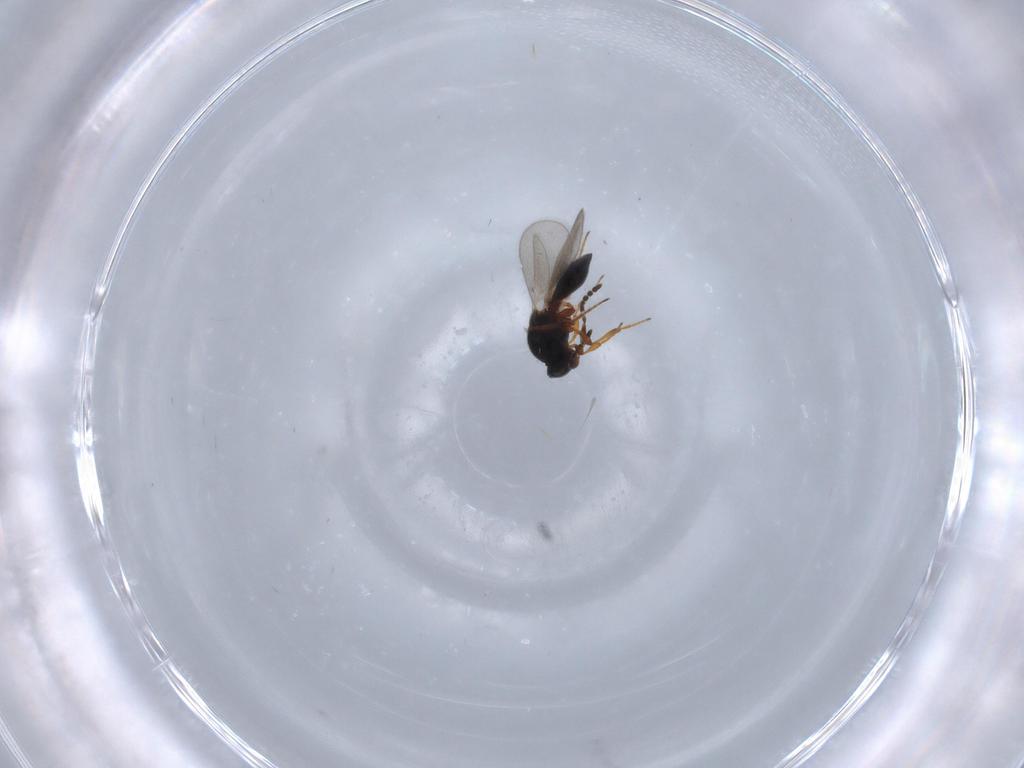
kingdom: Animalia
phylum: Arthropoda
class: Insecta
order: Hymenoptera
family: Platygastridae
